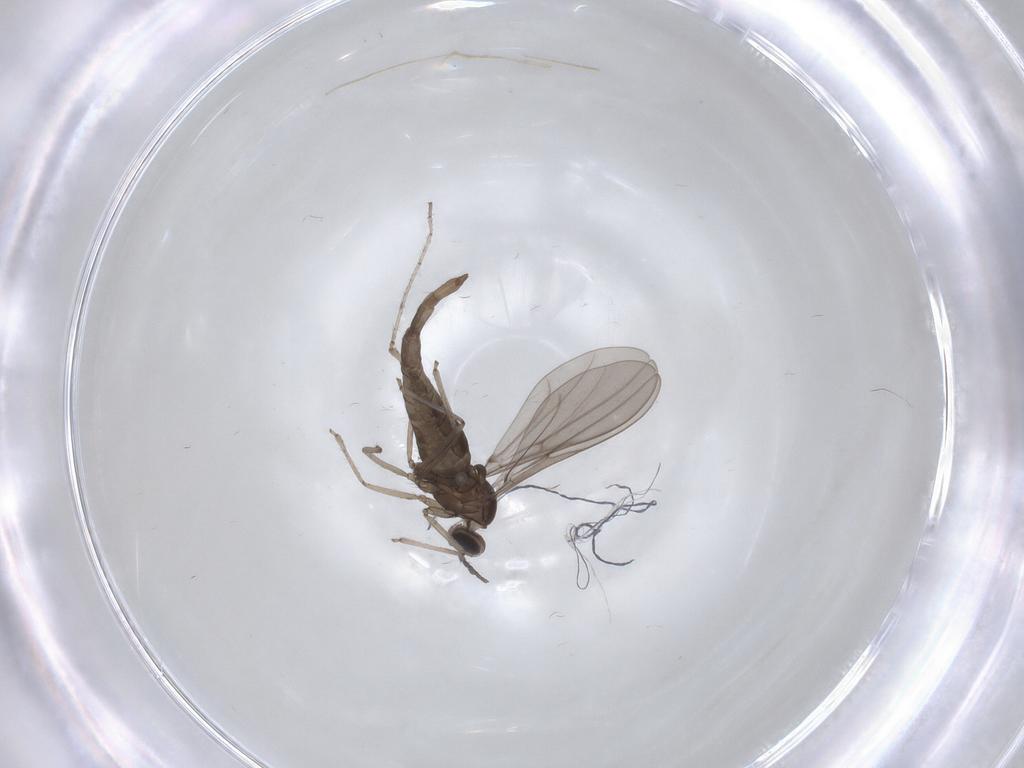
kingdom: Animalia
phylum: Arthropoda
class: Insecta
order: Diptera
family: Cecidomyiidae
